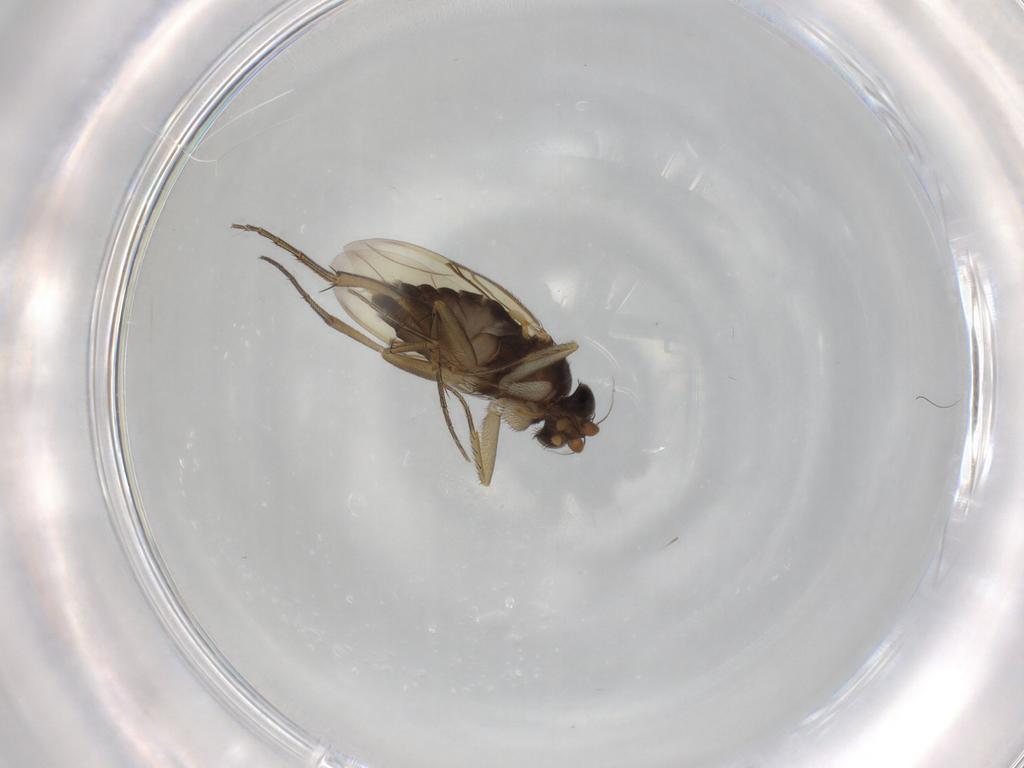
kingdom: Animalia
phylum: Arthropoda
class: Insecta
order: Diptera
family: Phoridae
